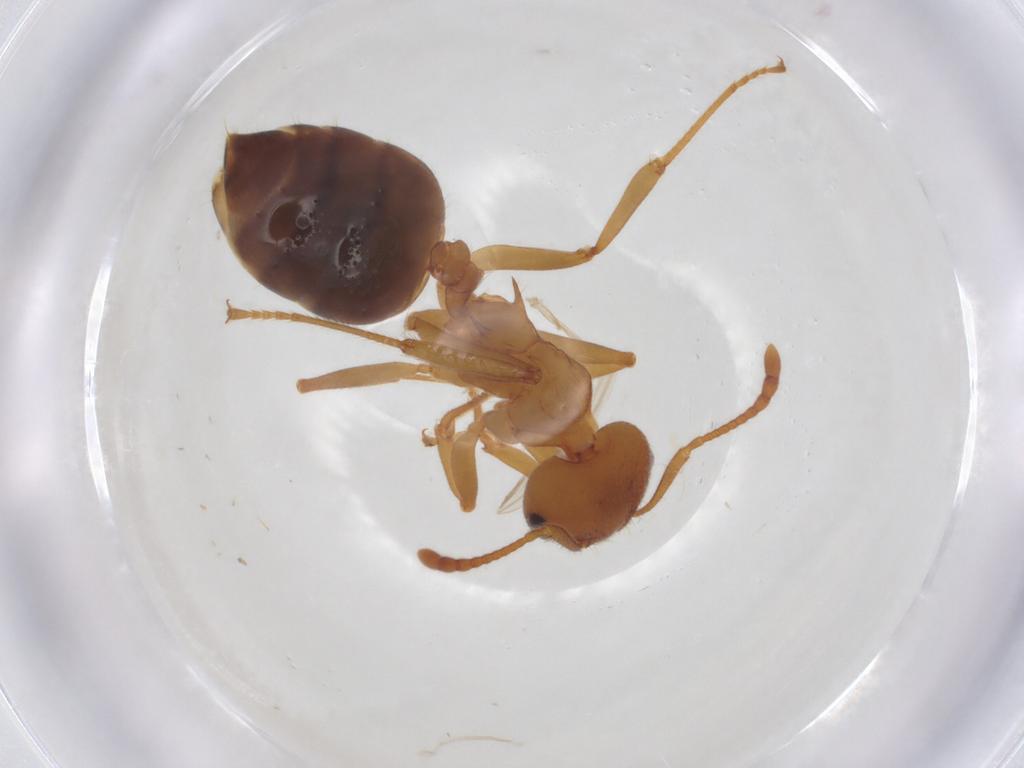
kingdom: Animalia
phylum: Arthropoda
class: Insecta
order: Hymenoptera
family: Formicidae
